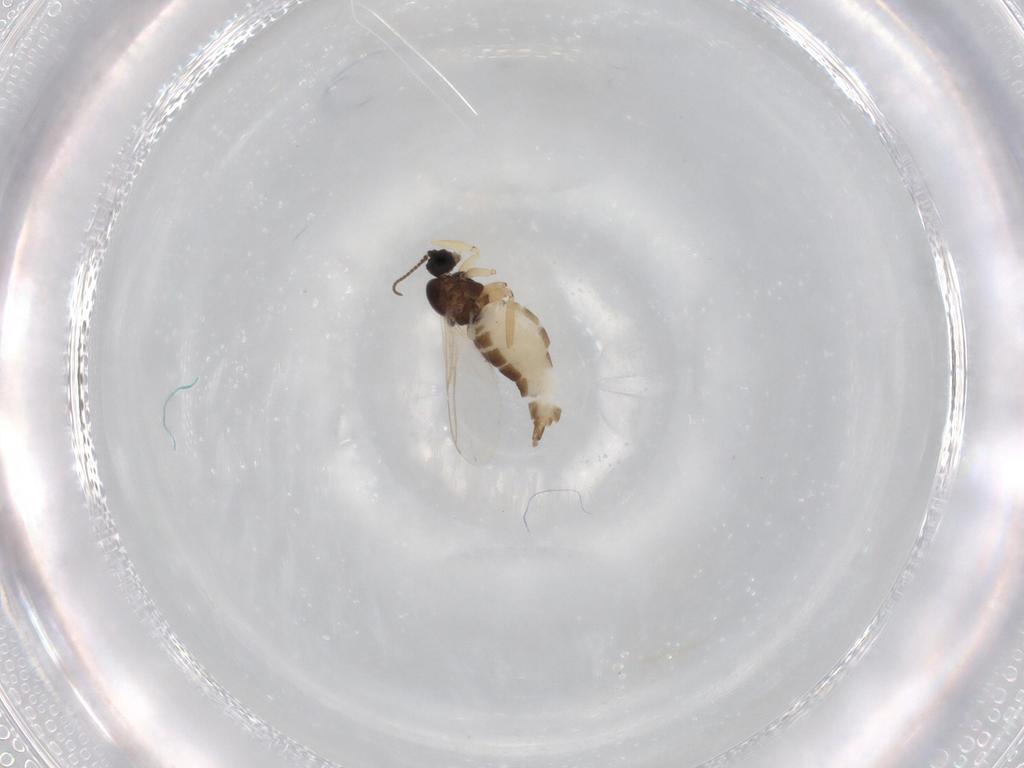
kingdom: Animalia
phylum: Arthropoda
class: Insecta
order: Diptera
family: Sciaridae
